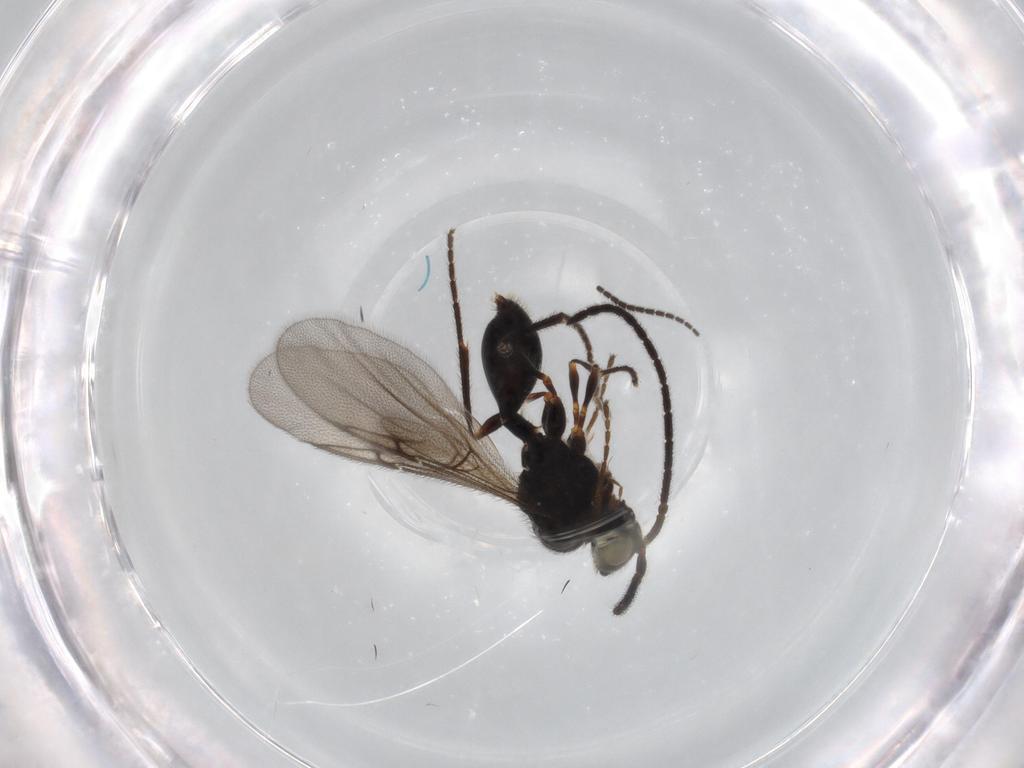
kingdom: Animalia
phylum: Arthropoda
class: Insecta
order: Hymenoptera
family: Diapriidae
